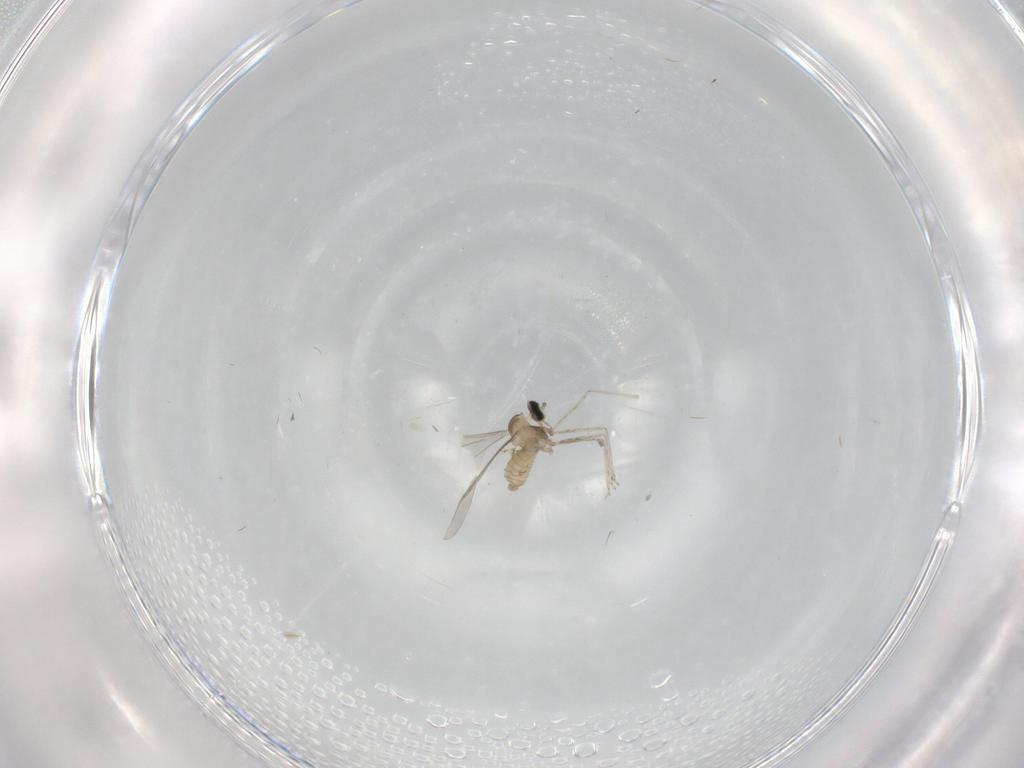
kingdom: Animalia
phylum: Arthropoda
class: Insecta
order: Diptera
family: Cecidomyiidae
